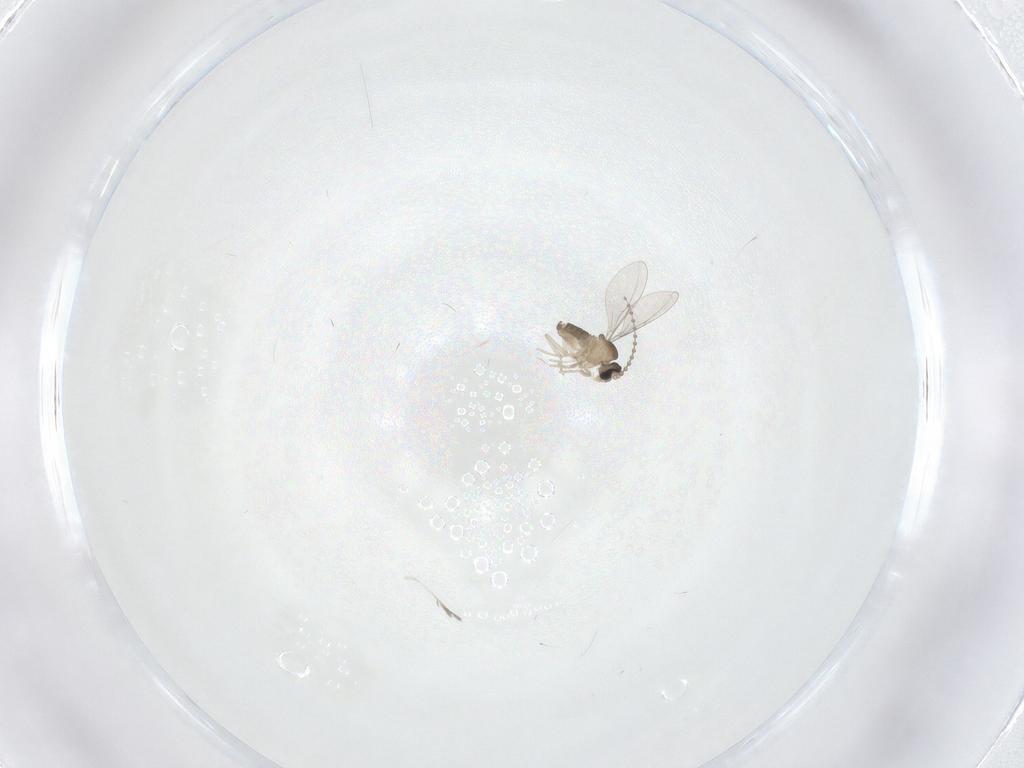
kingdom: Animalia
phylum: Arthropoda
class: Insecta
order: Diptera
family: Cecidomyiidae
